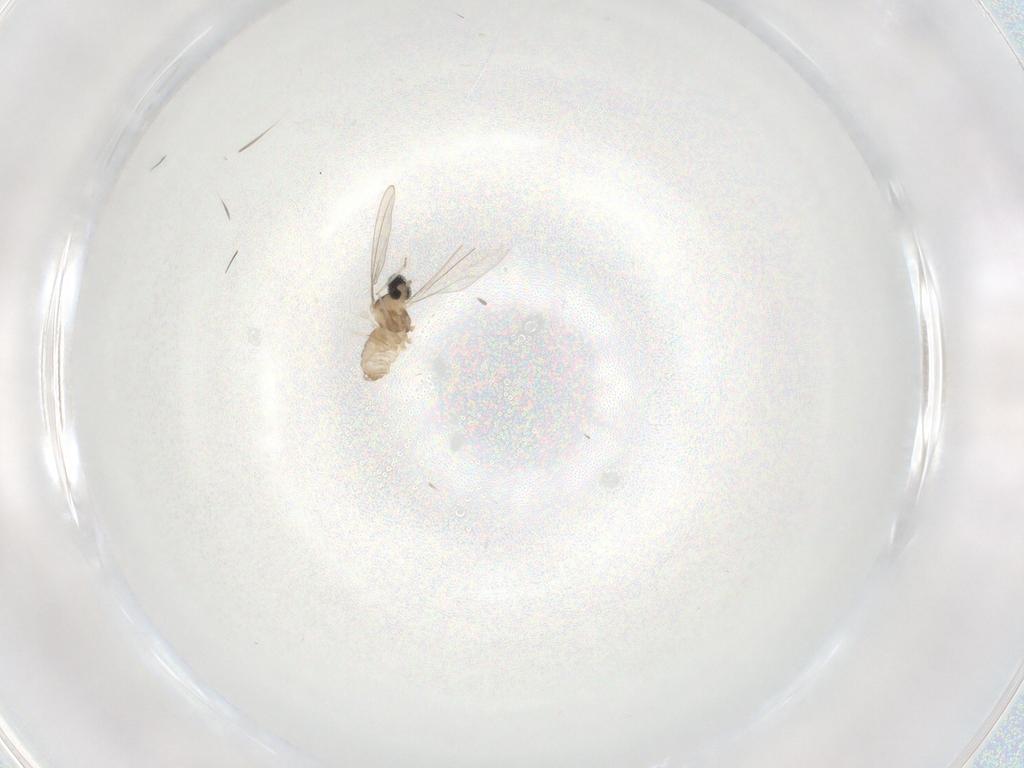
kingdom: Animalia
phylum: Arthropoda
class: Insecta
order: Diptera
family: Cecidomyiidae
